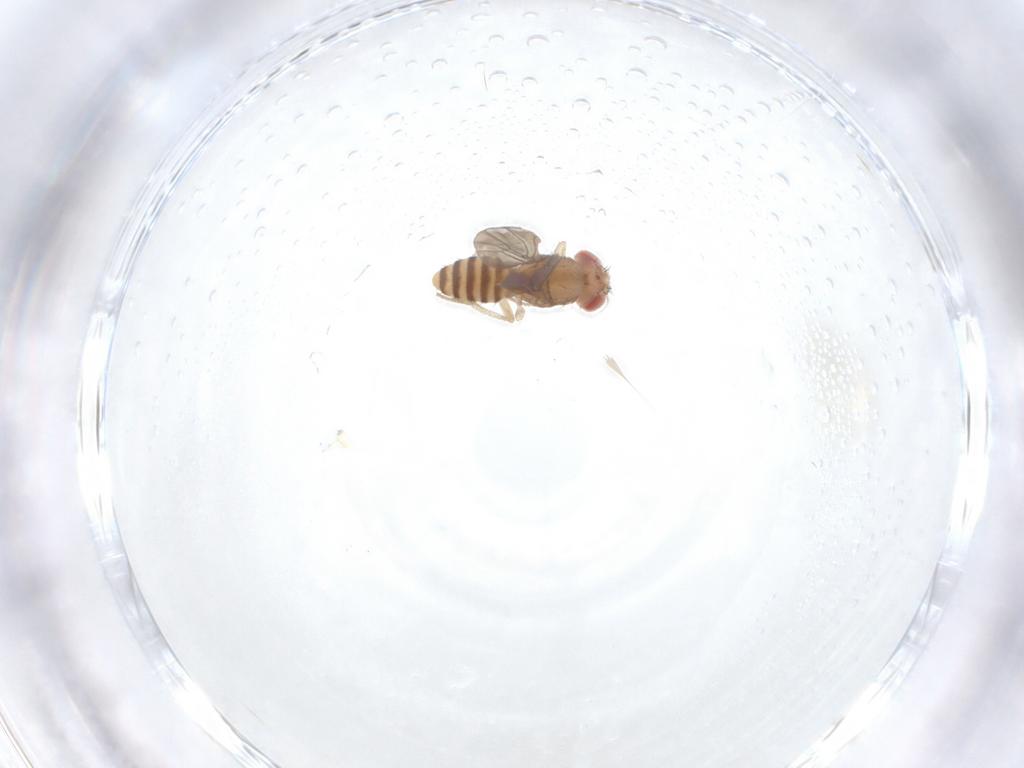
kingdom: Animalia
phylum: Arthropoda
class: Insecta
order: Diptera
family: Drosophilidae
